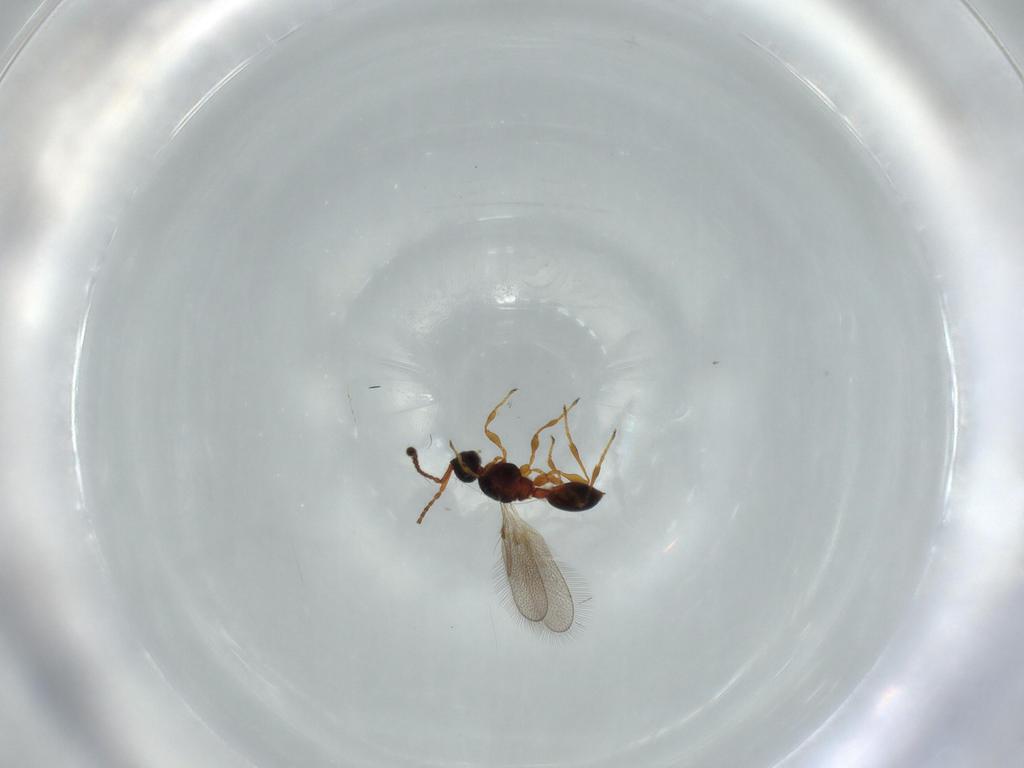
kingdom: Animalia
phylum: Arthropoda
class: Insecta
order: Hymenoptera
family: Diapriidae
